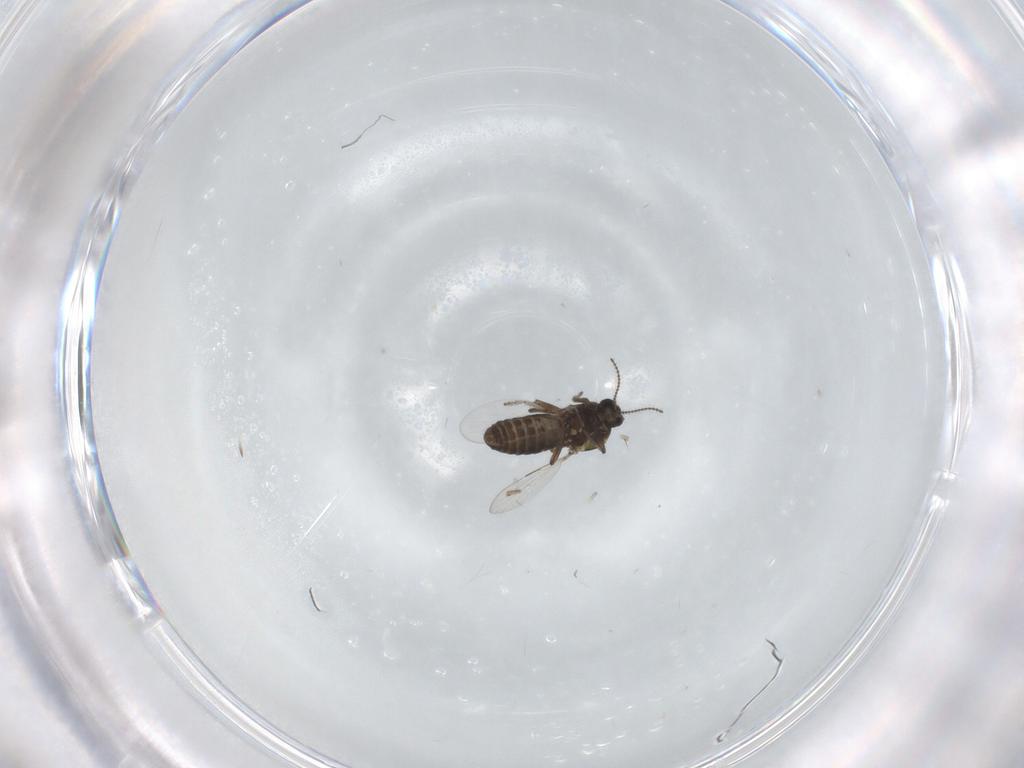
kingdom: Animalia
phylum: Arthropoda
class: Insecta
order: Diptera
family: Ceratopogonidae
